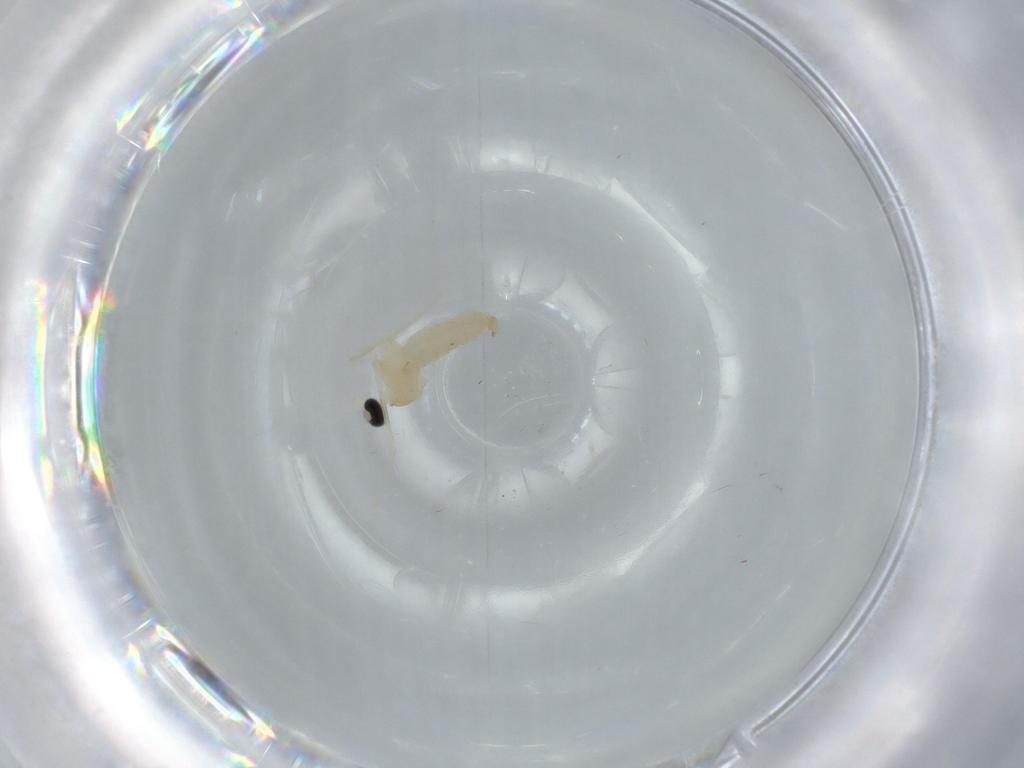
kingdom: Animalia
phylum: Arthropoda
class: Insecta
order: Diptera
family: Cecidomyiidae
